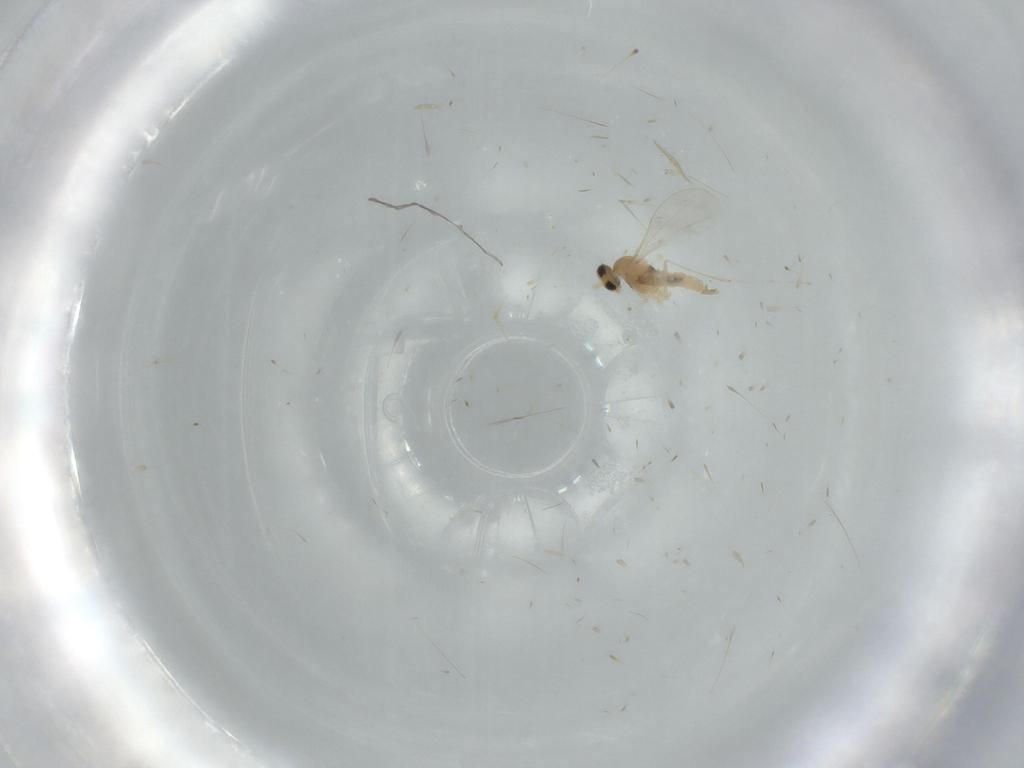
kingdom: Animalia
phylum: Arthropoda
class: Insecta
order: Diptera
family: Cecidomyiidae
